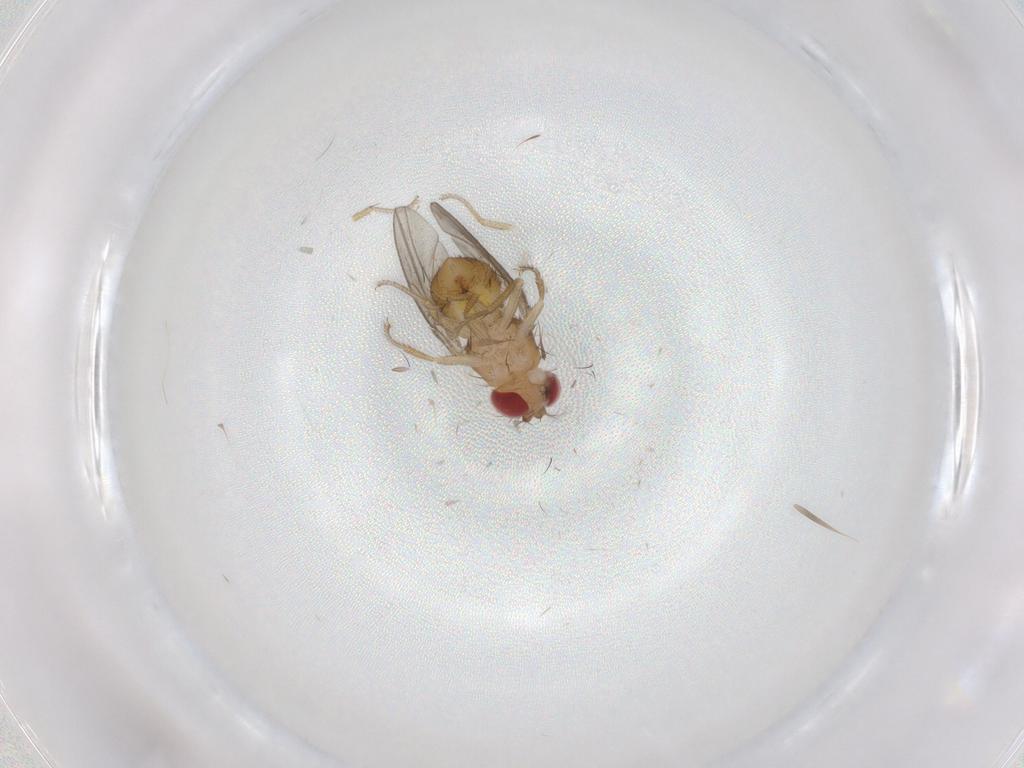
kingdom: Animalia
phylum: Arthropoda
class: Insecta
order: Diptera
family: Drosophilidae
